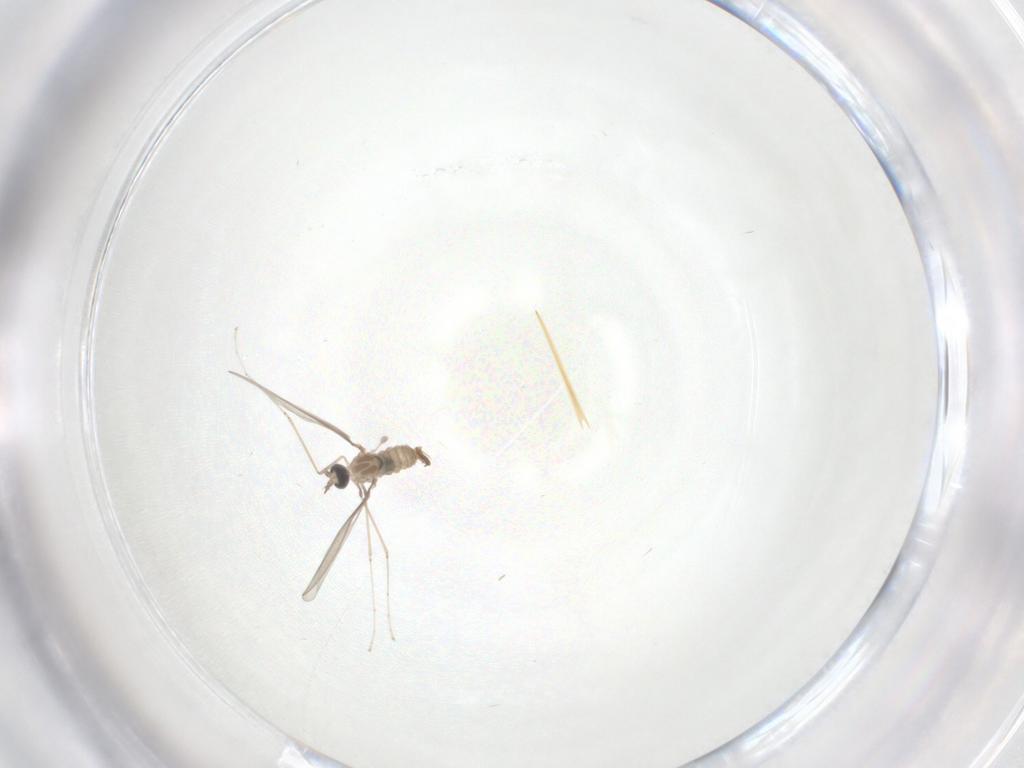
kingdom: Animalia
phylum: Arthropoda
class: Insecta
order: Diptera
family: Cecidomyiidae
